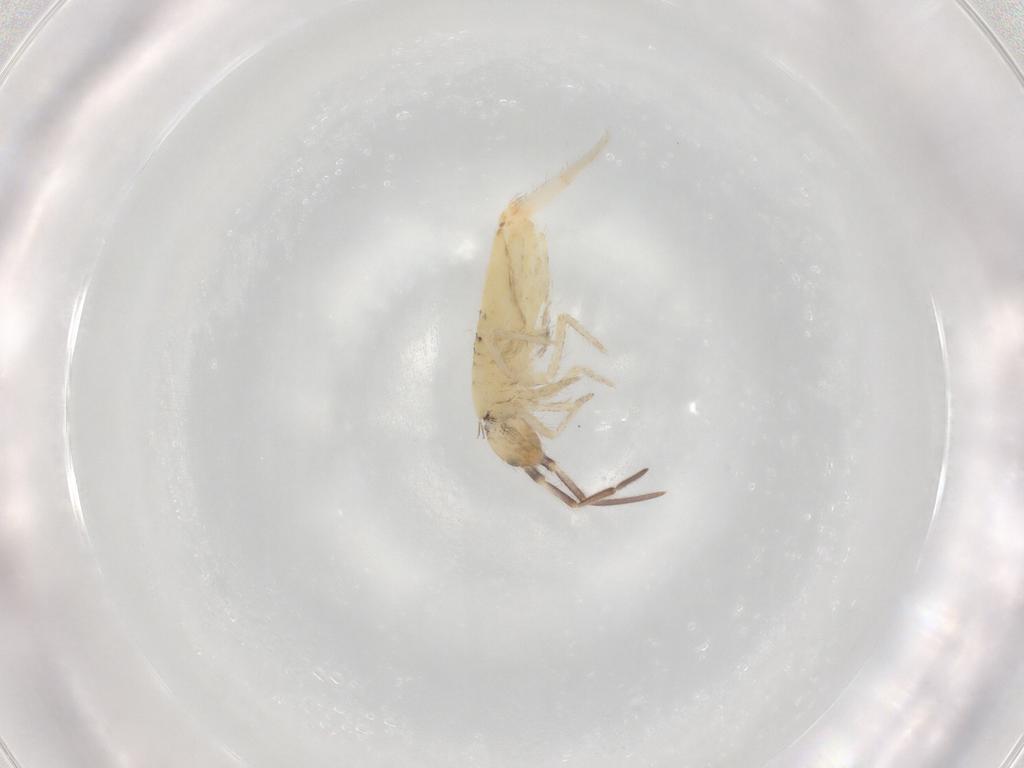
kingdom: Animalia
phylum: Arthropoda
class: Collembola
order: Entomobryomorpha
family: Entomobryidae
